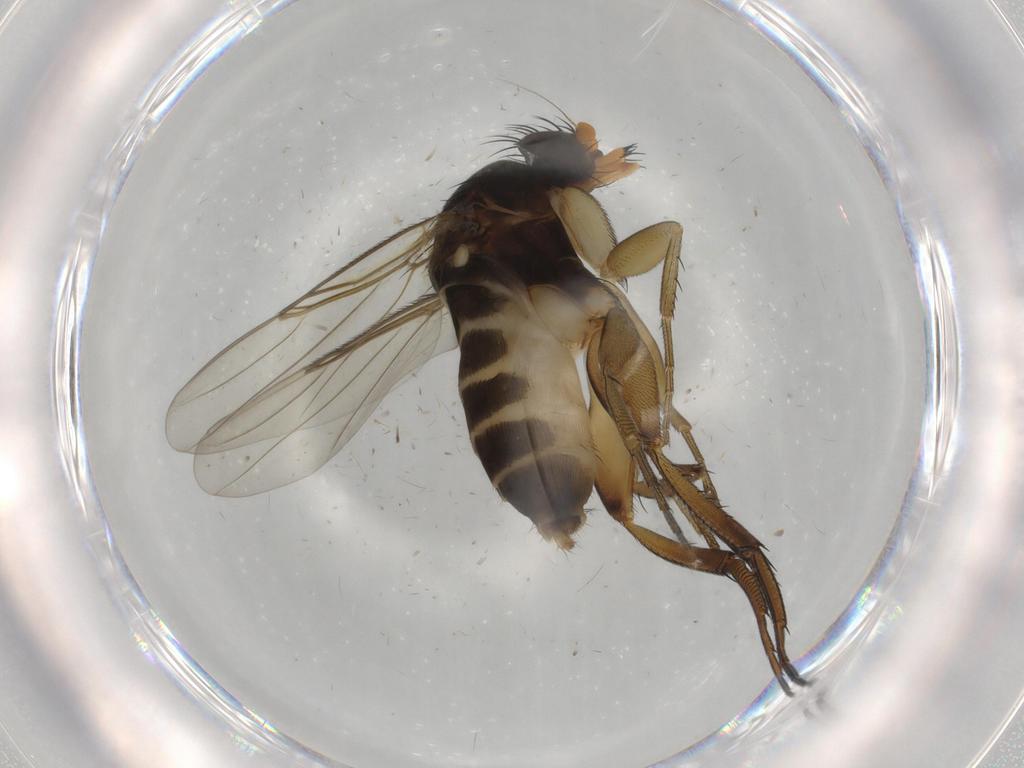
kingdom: Animalia
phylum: Arthropoda
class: Insecta
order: Diptera
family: Phoridae
